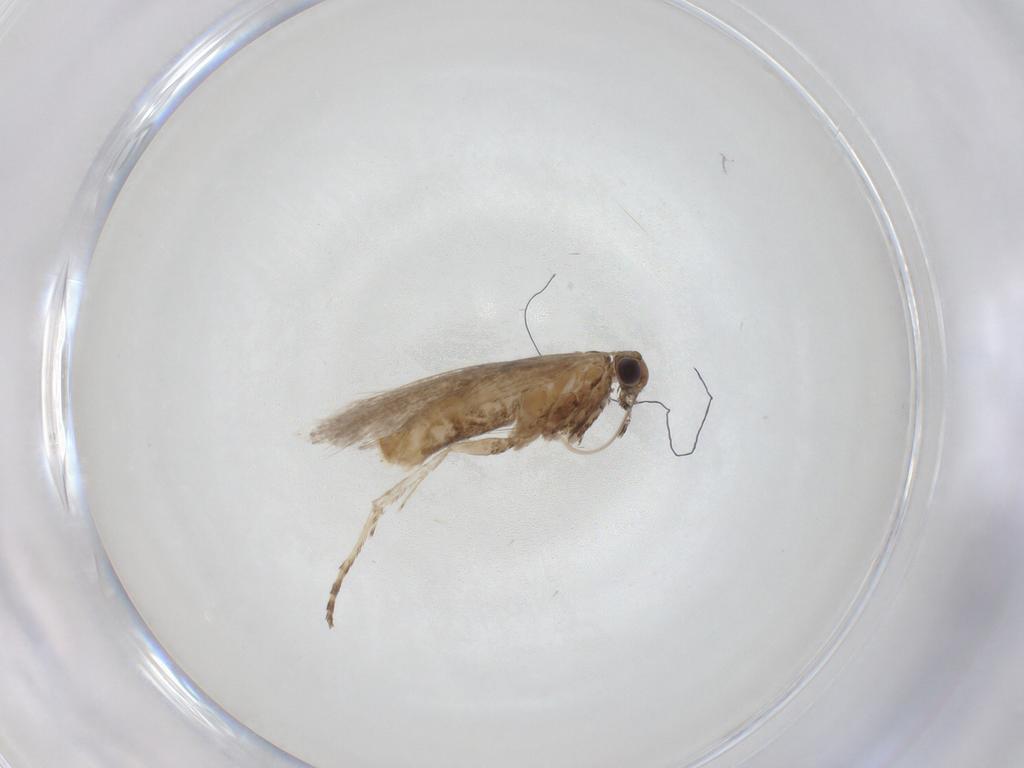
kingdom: Animalia
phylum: Arthropoda
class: Insecta
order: Lepidoptera
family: Gracillariidae
